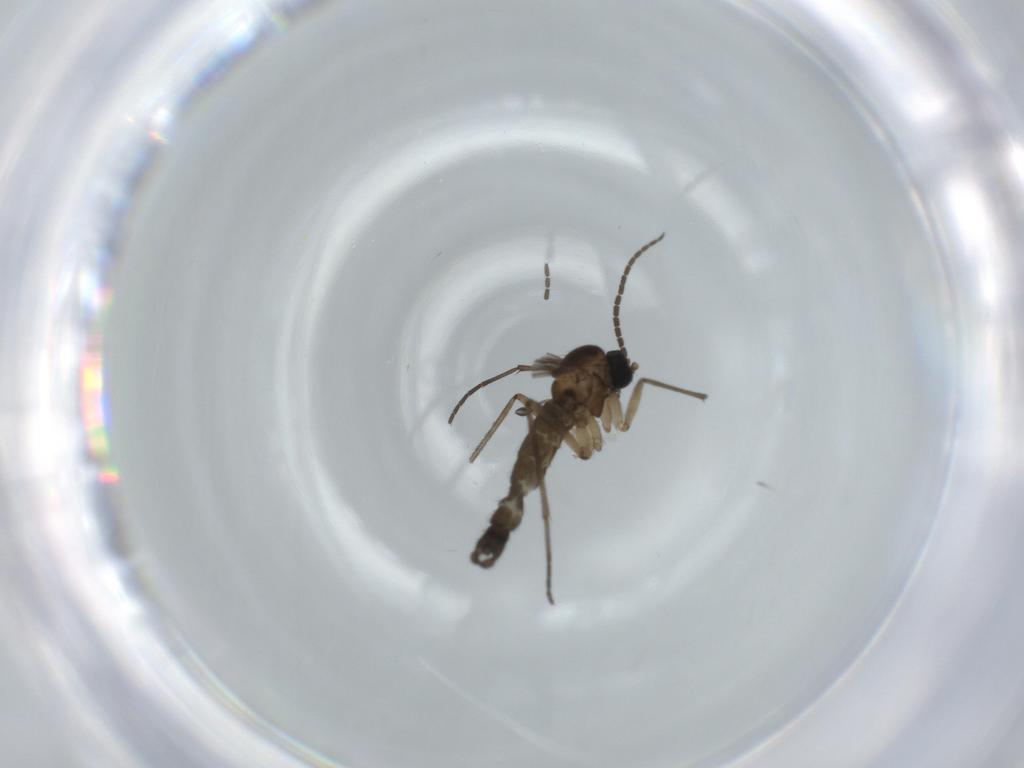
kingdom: Animalia
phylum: Arthropoda
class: Insecta
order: Diptera
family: Sciaridae
